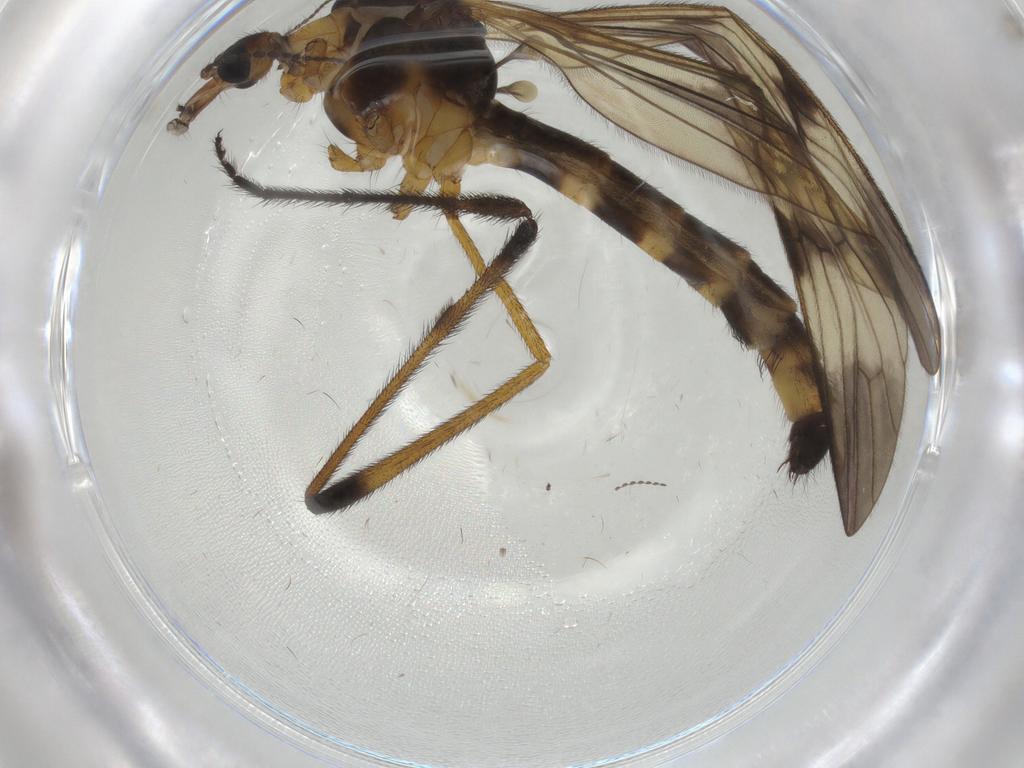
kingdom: Animalia
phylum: Arthropoda
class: Insecta
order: Diptera
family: Limoniidae
